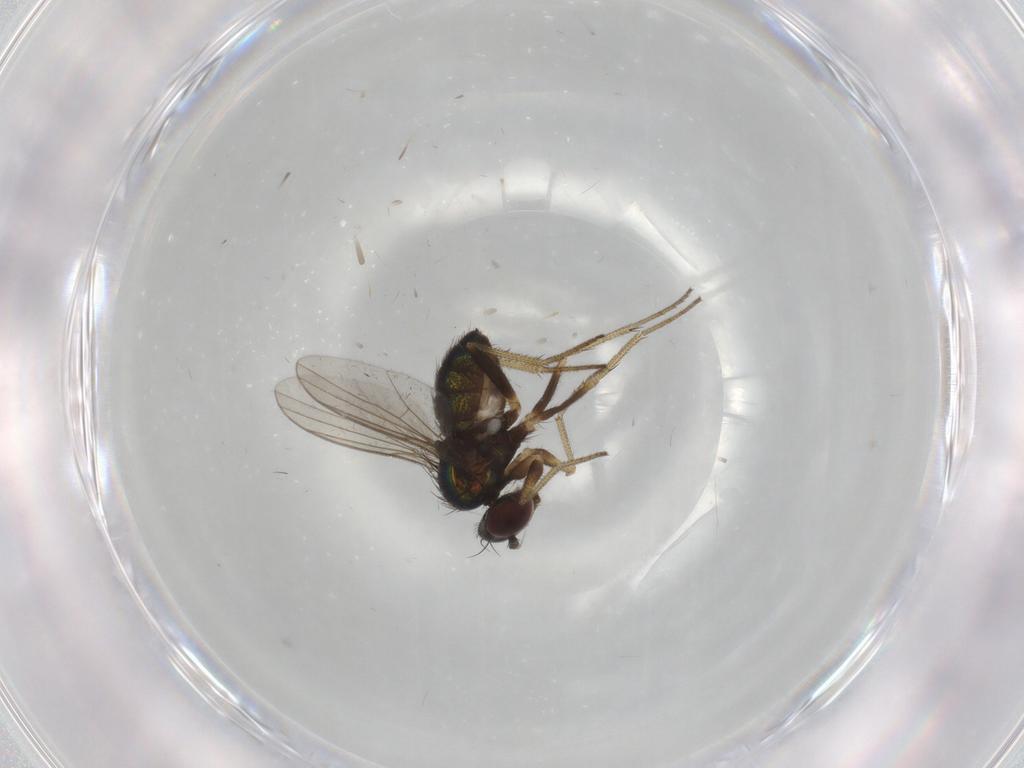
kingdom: Animalia
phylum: Arthropoda
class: Insecta
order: Diptera
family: Dolichopodidae
